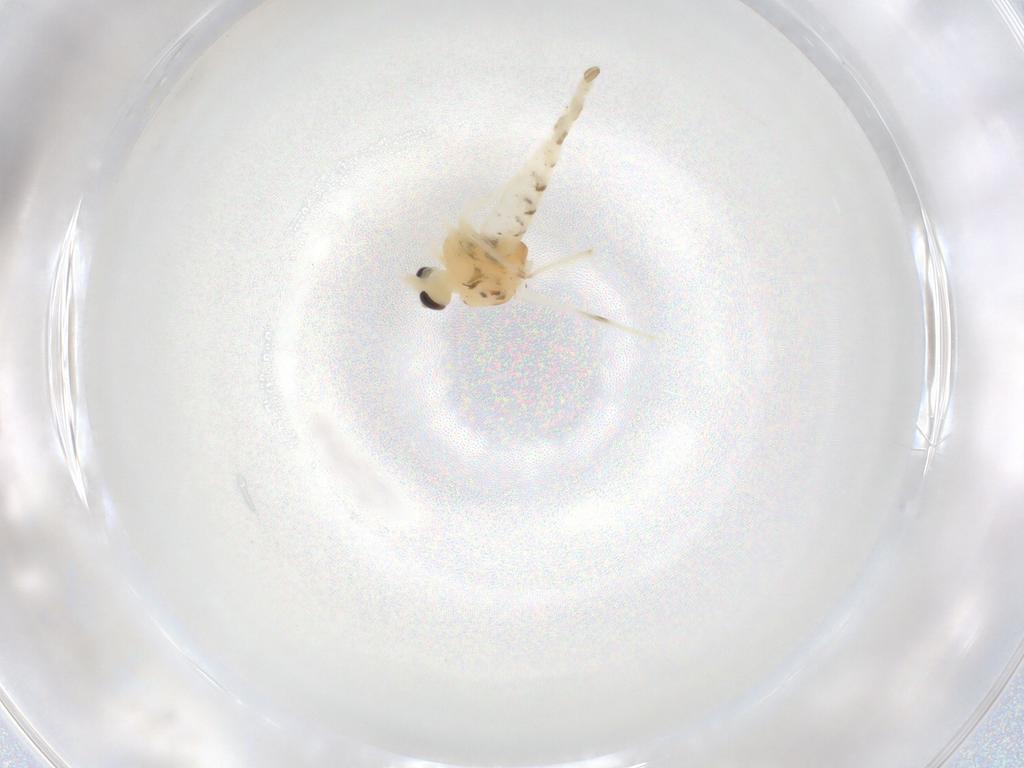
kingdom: Animalia
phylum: Arthropoda
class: Insecta
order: Diptera
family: Chironomidae
